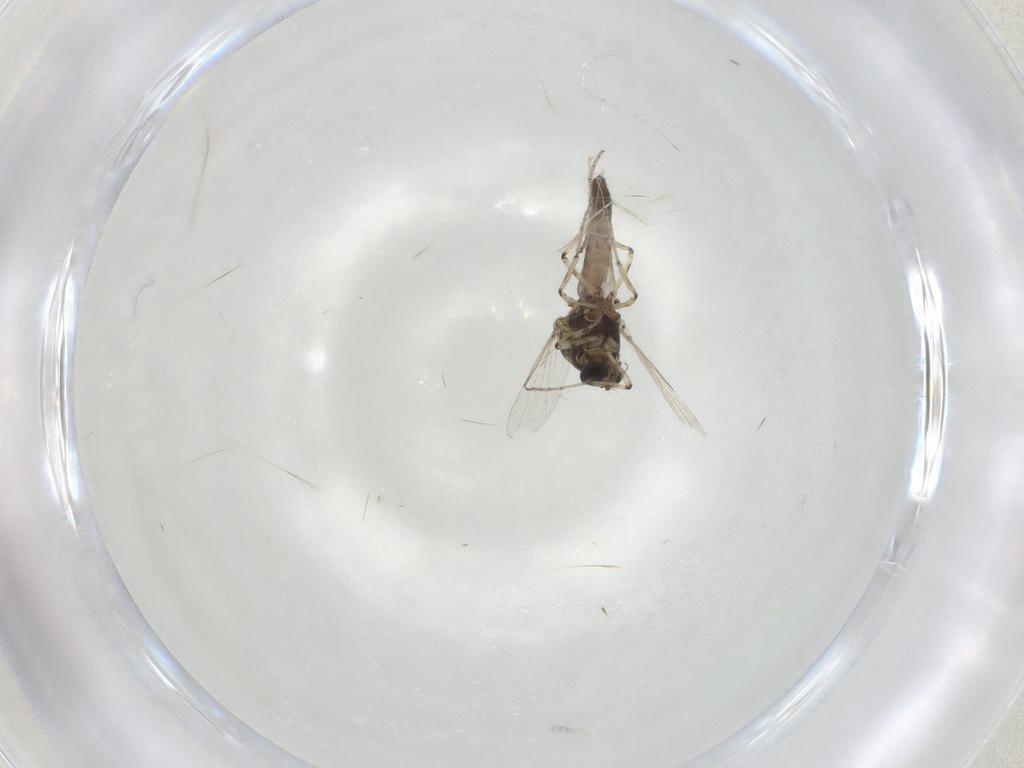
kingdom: Animalia
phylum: Arthropoda
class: Insecta
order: Diptera
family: Ceratopogonidae
